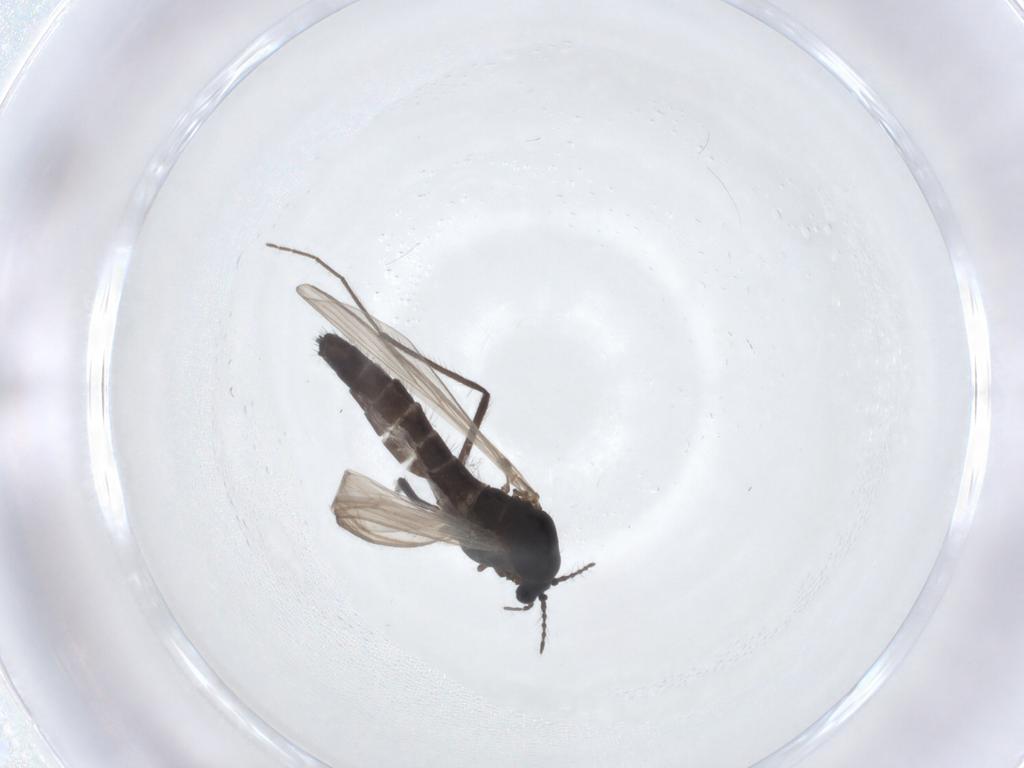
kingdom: Animalia
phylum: Arthropoda
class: Insecta
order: Diptera
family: Chironomidae
